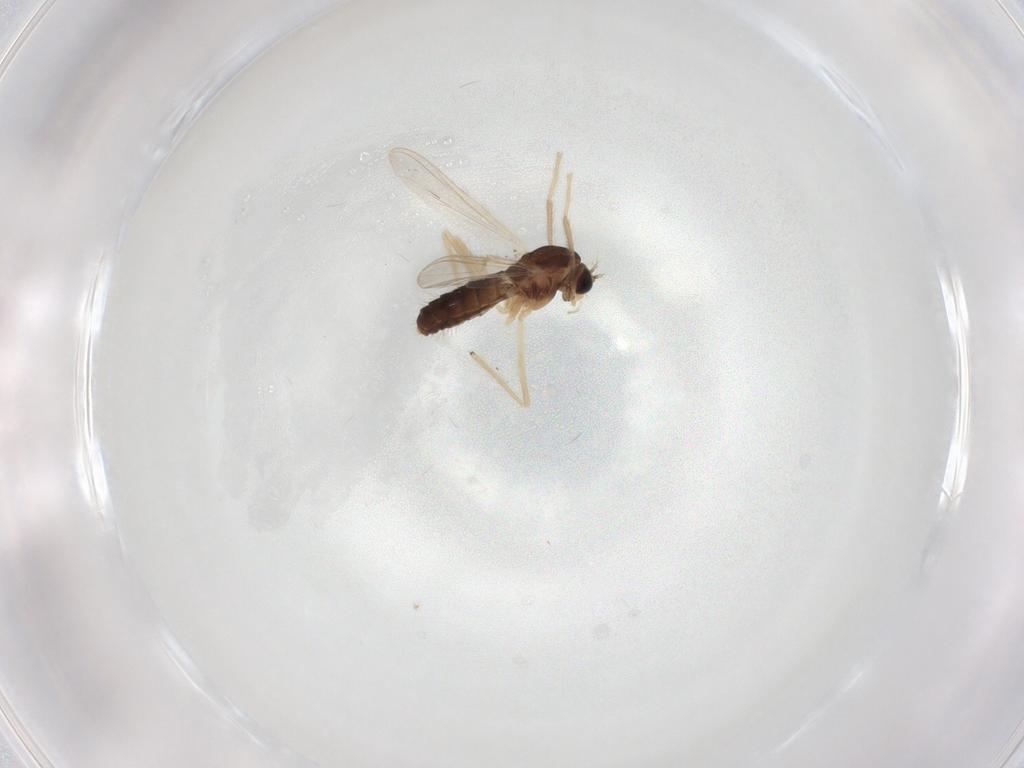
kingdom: Animalia
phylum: Arthropoda
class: Insecta
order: Diptera
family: Chironomidae
